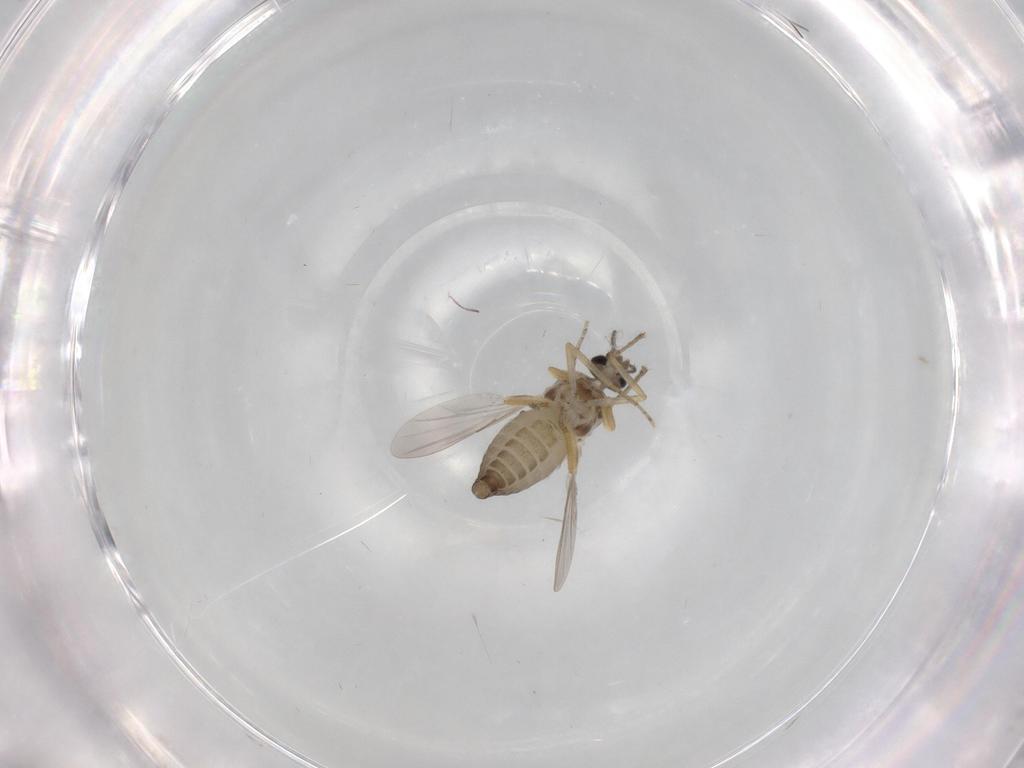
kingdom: Animalia
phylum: Arthropoda
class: Insecta
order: Diptera
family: Ceratopogonidae
